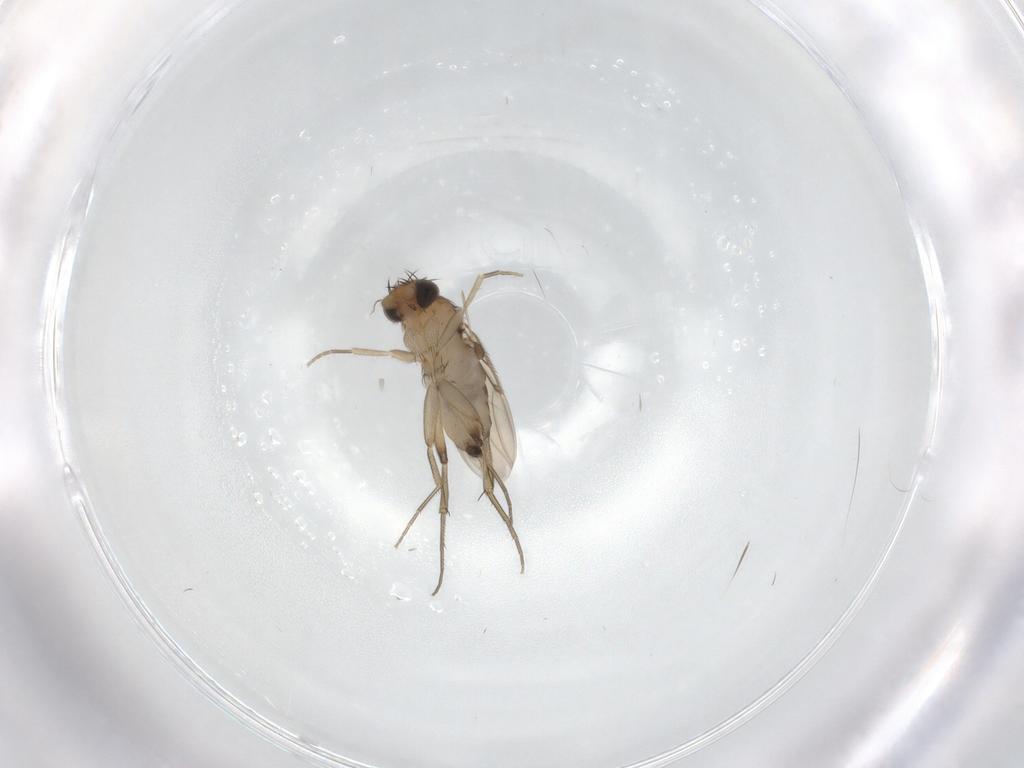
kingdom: Animalia
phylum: Arthropoda
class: Insecta
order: Diptera
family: Phoridae
